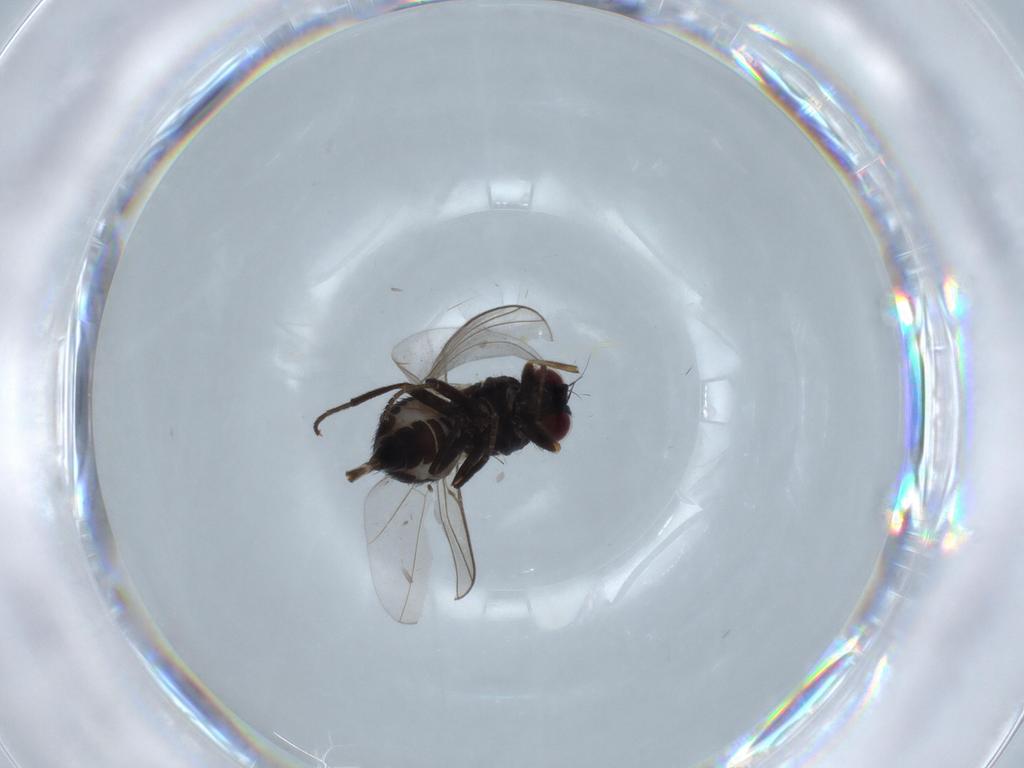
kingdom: Animalia
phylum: Arthropoda
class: Insecta
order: Diptera
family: Agromyzidae
